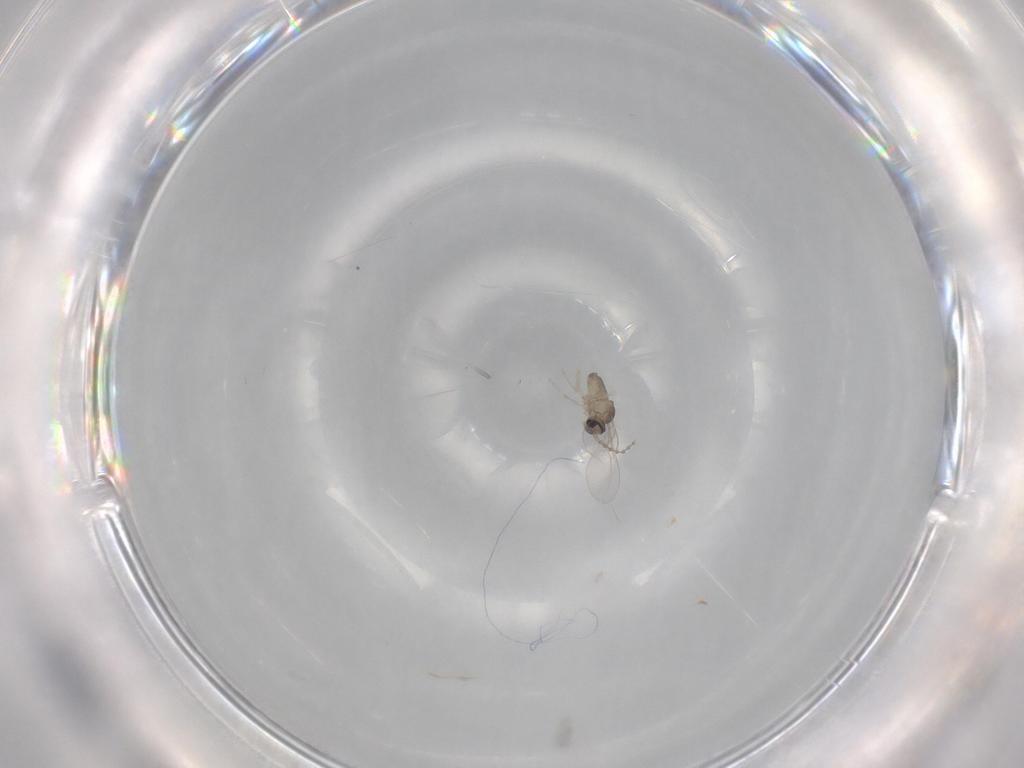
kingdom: Animalia
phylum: Arthropoda
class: Insecta
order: Diptera
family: Cecidomyiidae
